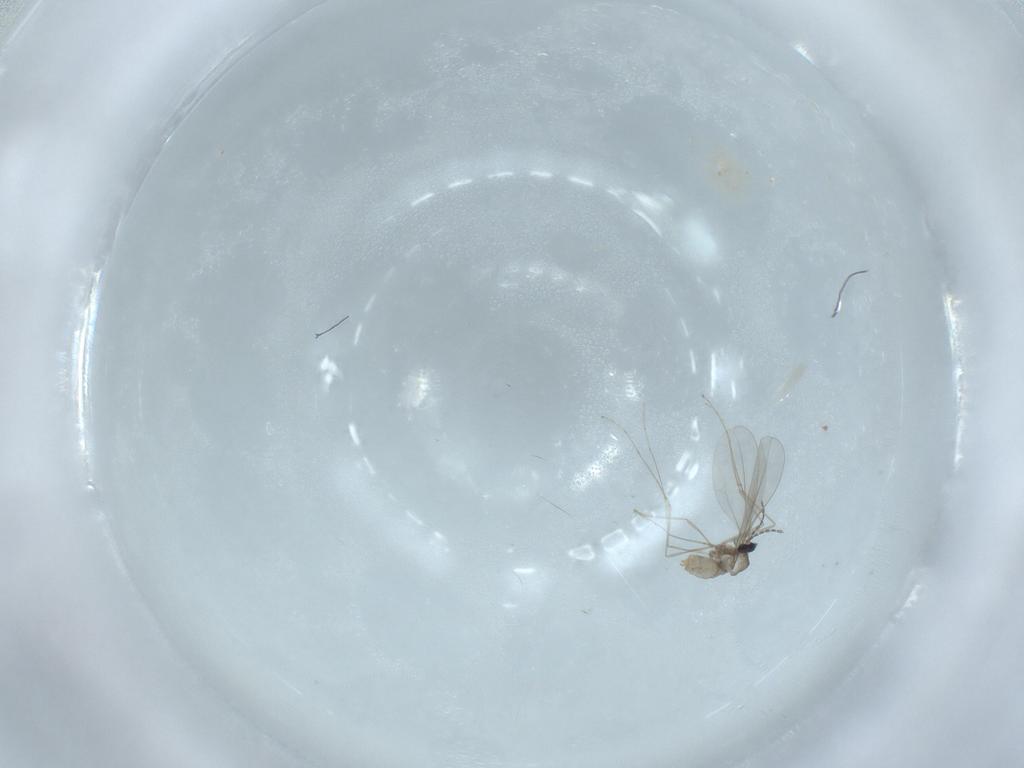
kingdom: Animalia
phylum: Arthropoda
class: Insecta
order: Diptera
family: Cecidomyiidae
